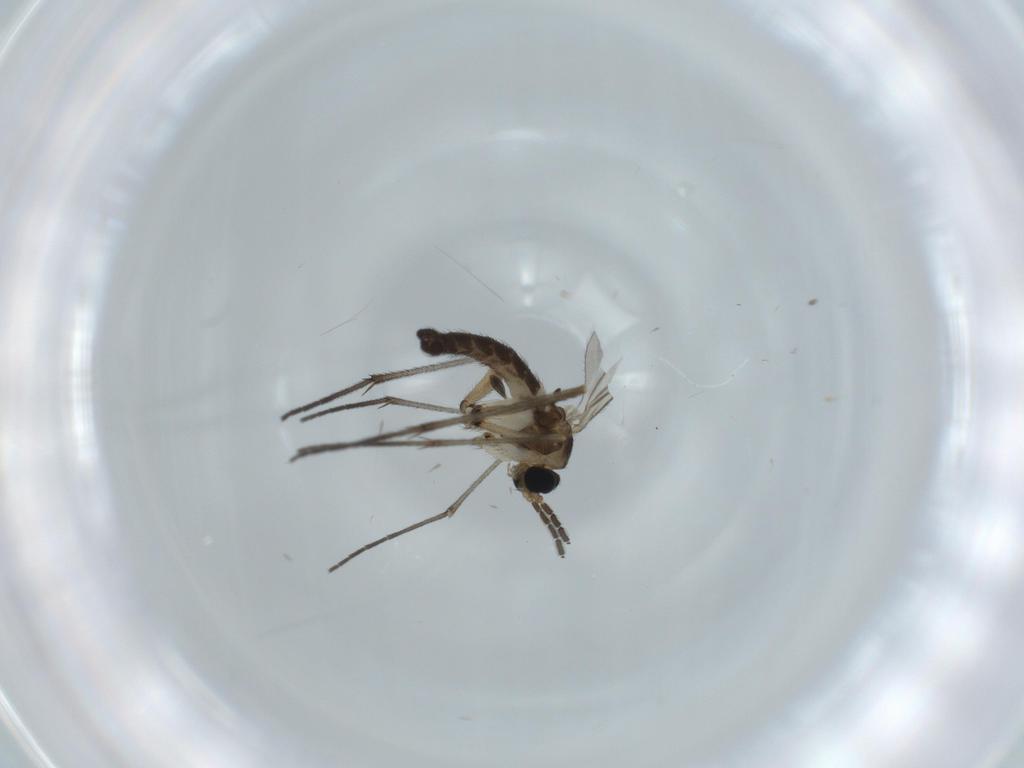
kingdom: Animalia
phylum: Arthropoda
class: Insecta
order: Diptera
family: Sciaridae
